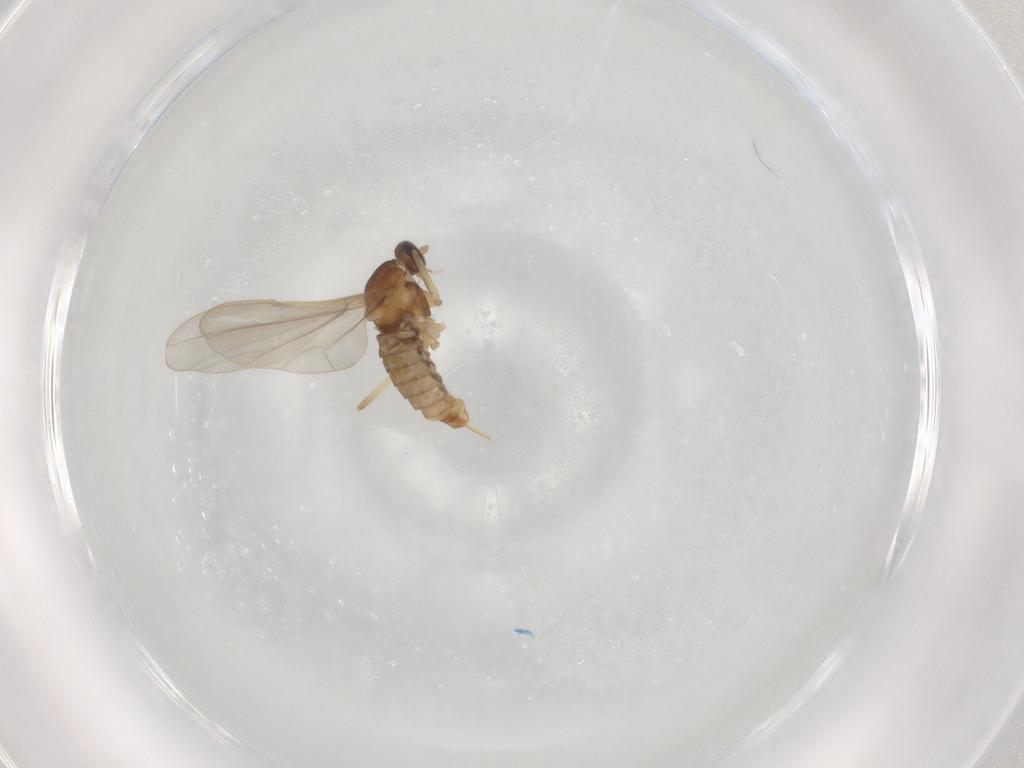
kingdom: Animalia
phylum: Arthropoda
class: Insecta
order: Diptera
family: Cecidomyiidae
